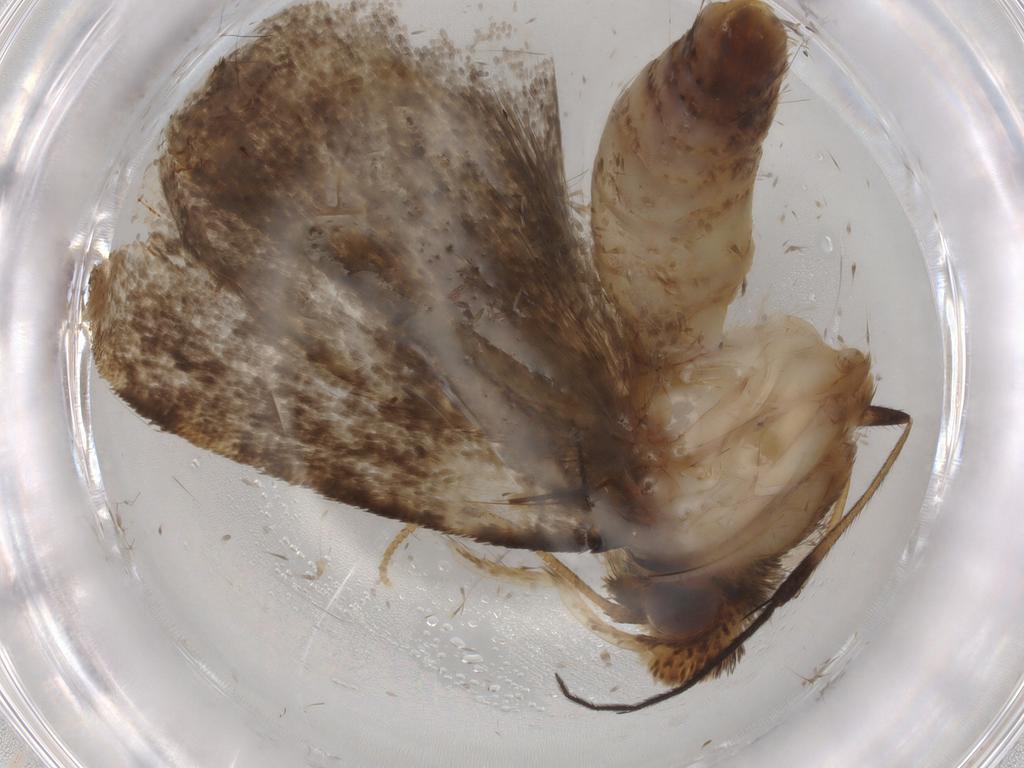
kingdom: Animalia
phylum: Arthropoda
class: Insecta
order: Lepidoptera
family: Tineidae
